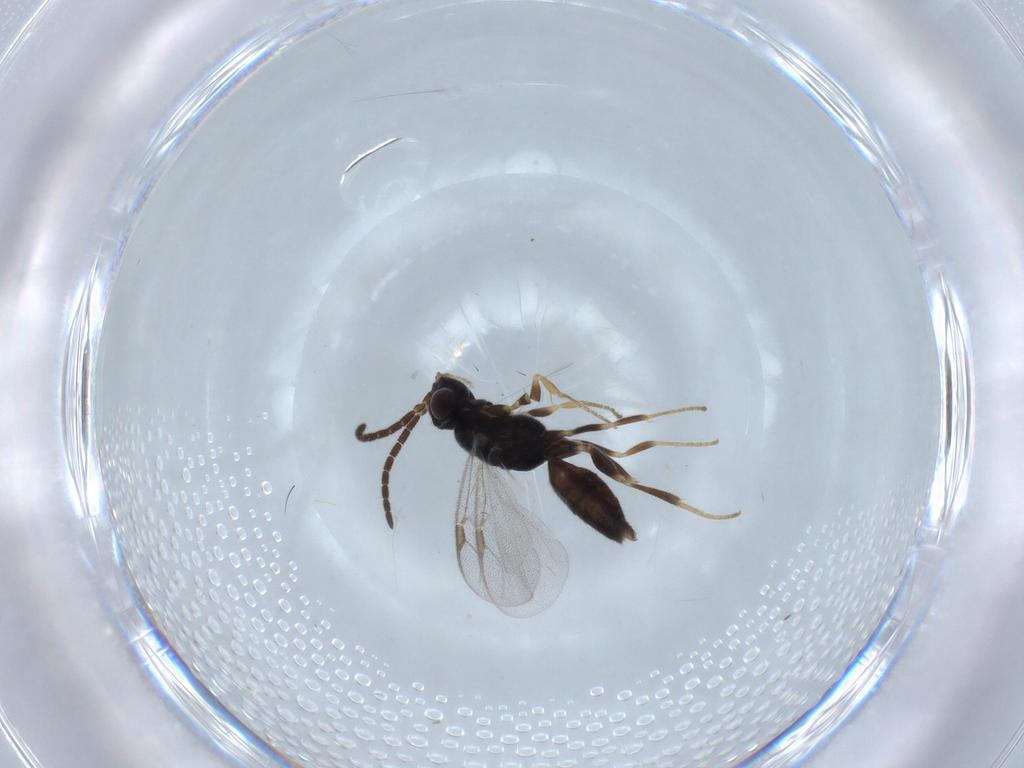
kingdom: Animalia
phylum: Arthropoda
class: Insecta
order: Hymenoptera
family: Dryinidae
